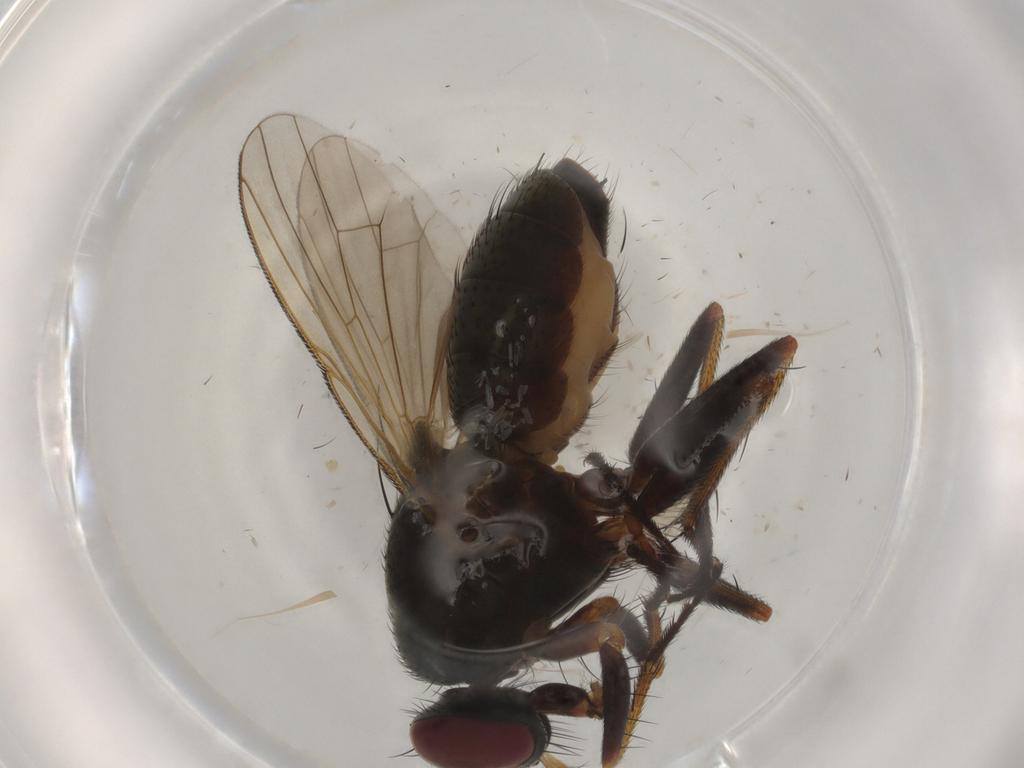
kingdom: Animalia
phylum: Arthropoda
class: Insecta
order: Diptera
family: Muscidae
